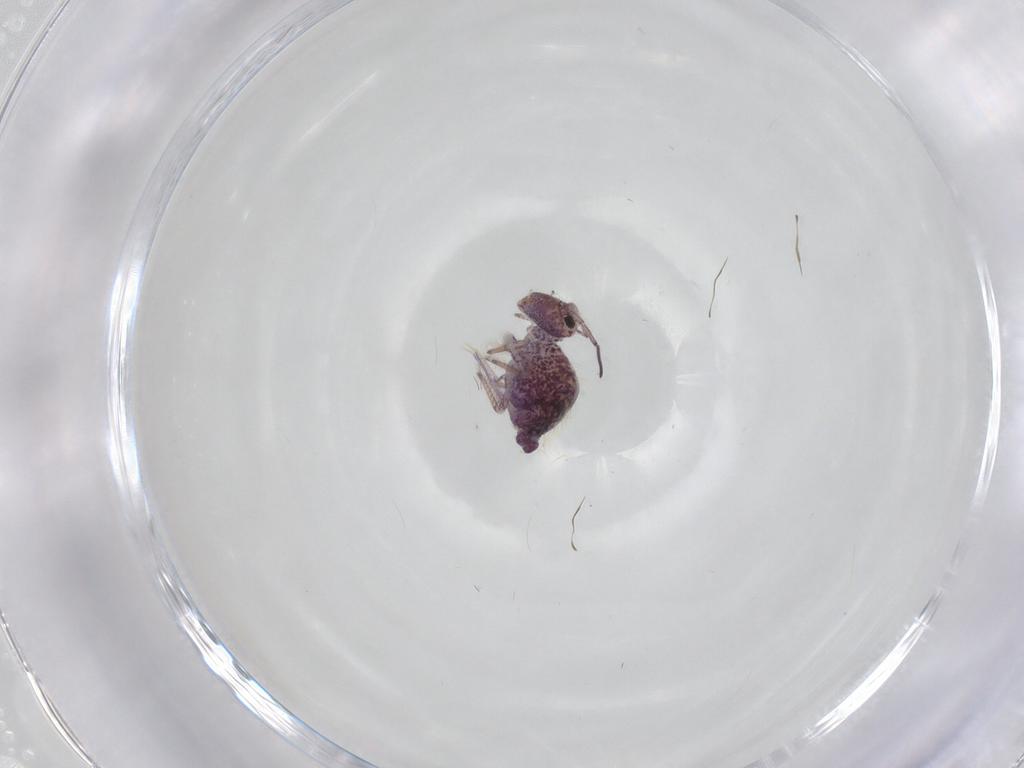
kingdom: Animalia
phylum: Arthropoda
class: Collembola
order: Symphypleona
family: Sminthuridae
